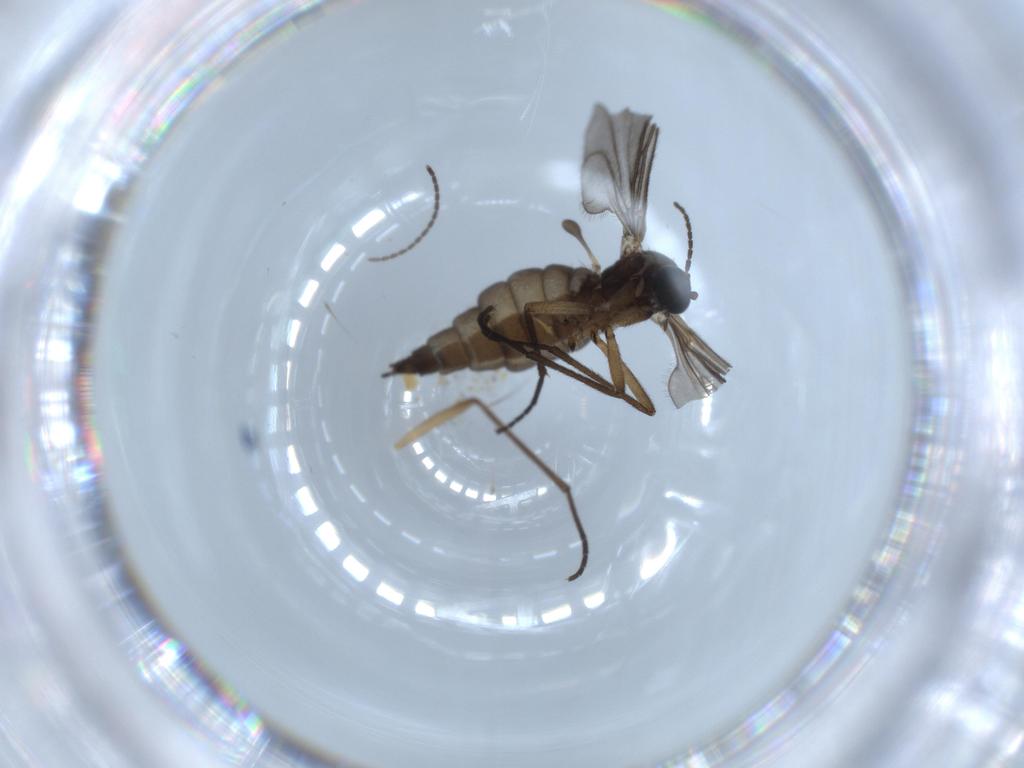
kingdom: Animalia
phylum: Arthropoda
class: Insecta
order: Diptera
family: Sciaridae
